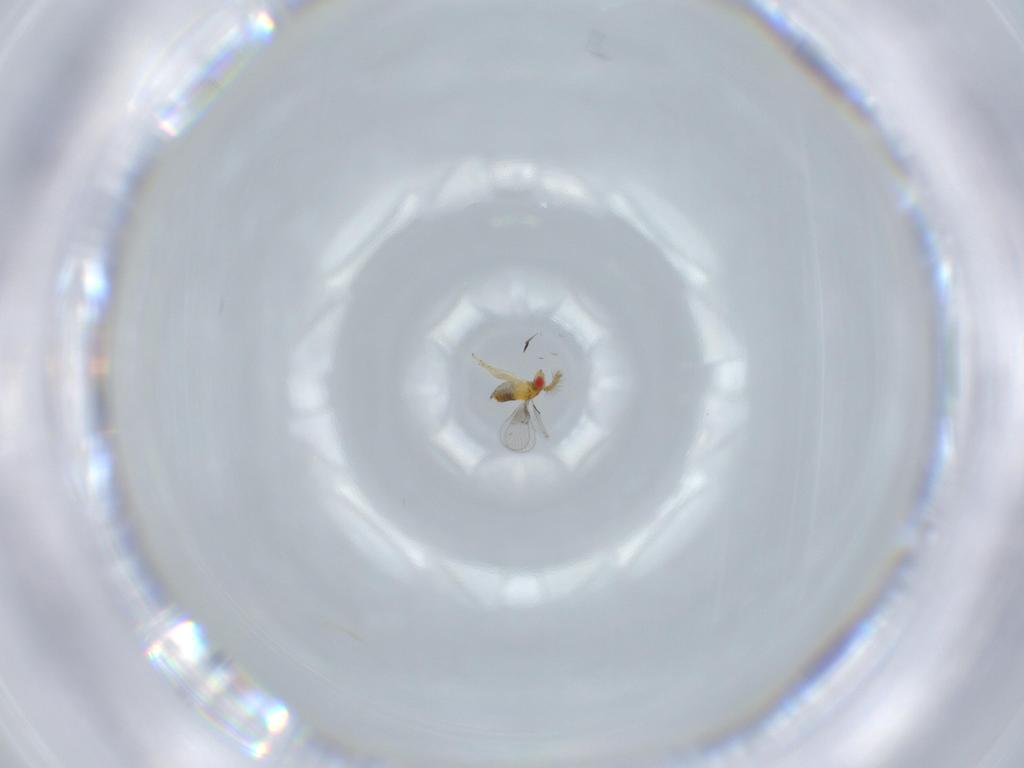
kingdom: Animalia
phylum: Arthropoda
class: Insecta
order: Hymenoptera
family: Trichogrammatidae
